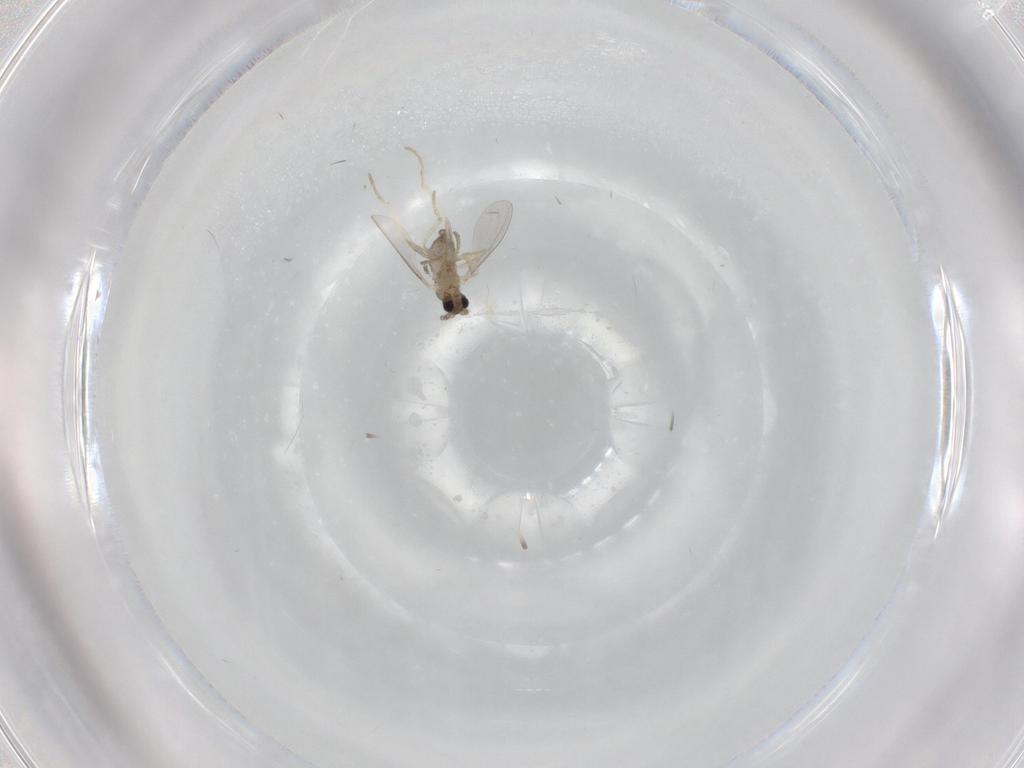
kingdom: Animalia
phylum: Arthropoda
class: Insecta
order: Diptera
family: Cecidomyiidae
